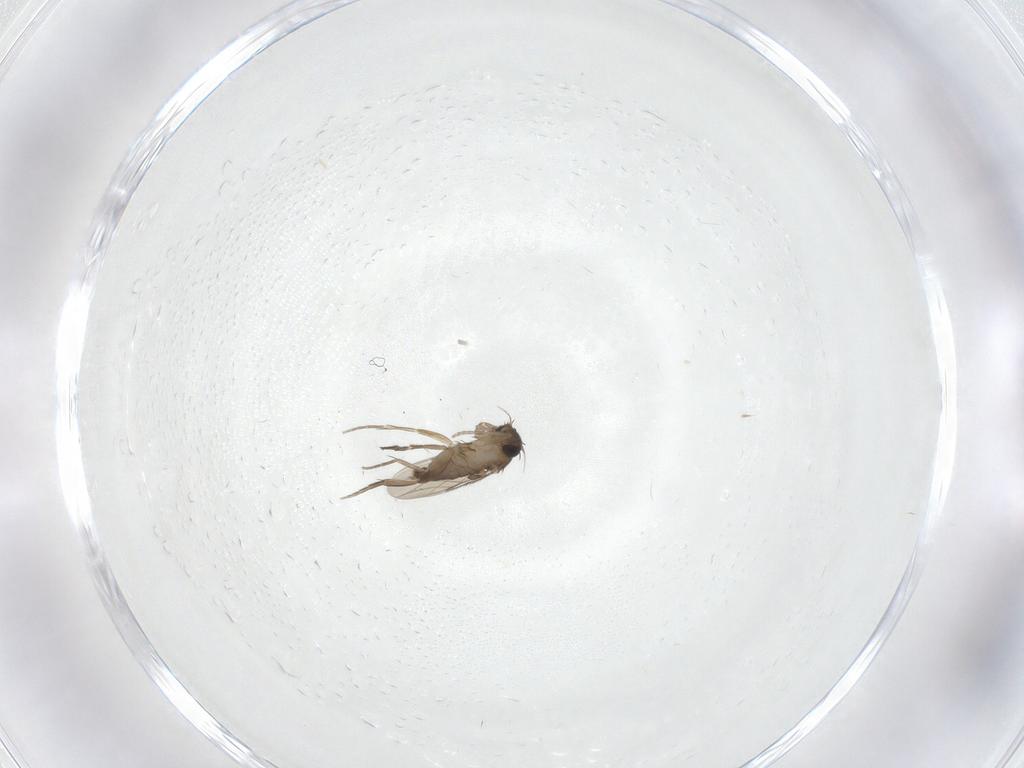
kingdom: Animalia
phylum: Arthropoda
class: Insecta
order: Diptera
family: Phoridae
